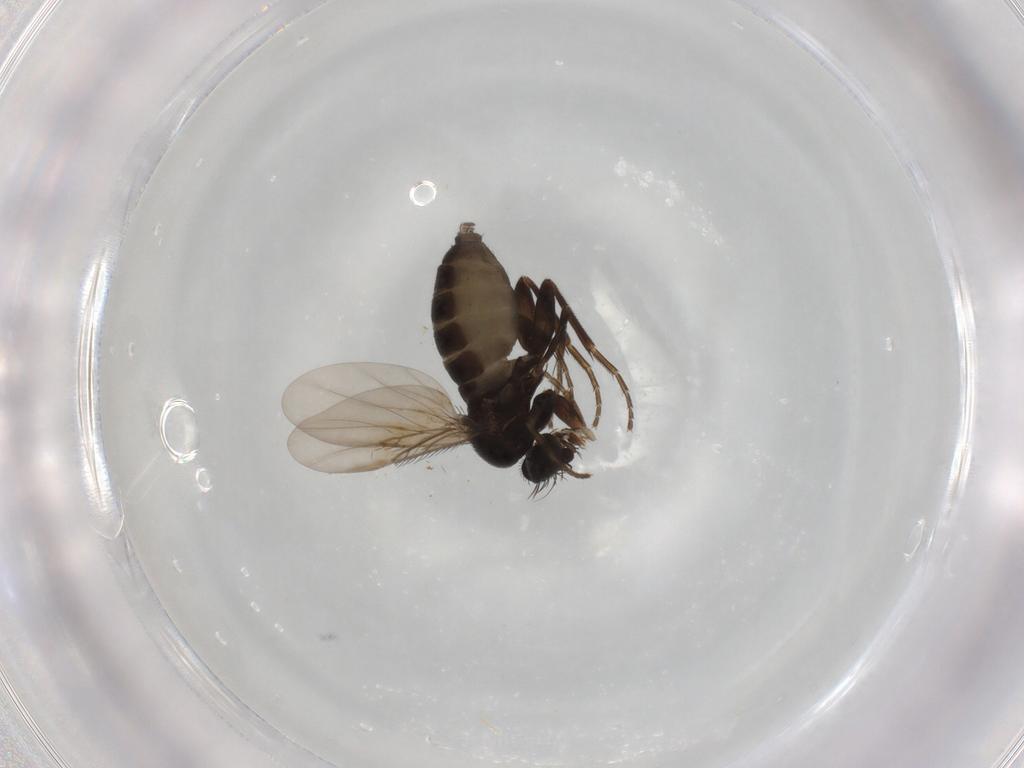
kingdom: Animalia
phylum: Arthropoda
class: Insecta
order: Diptera
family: Phoridae
